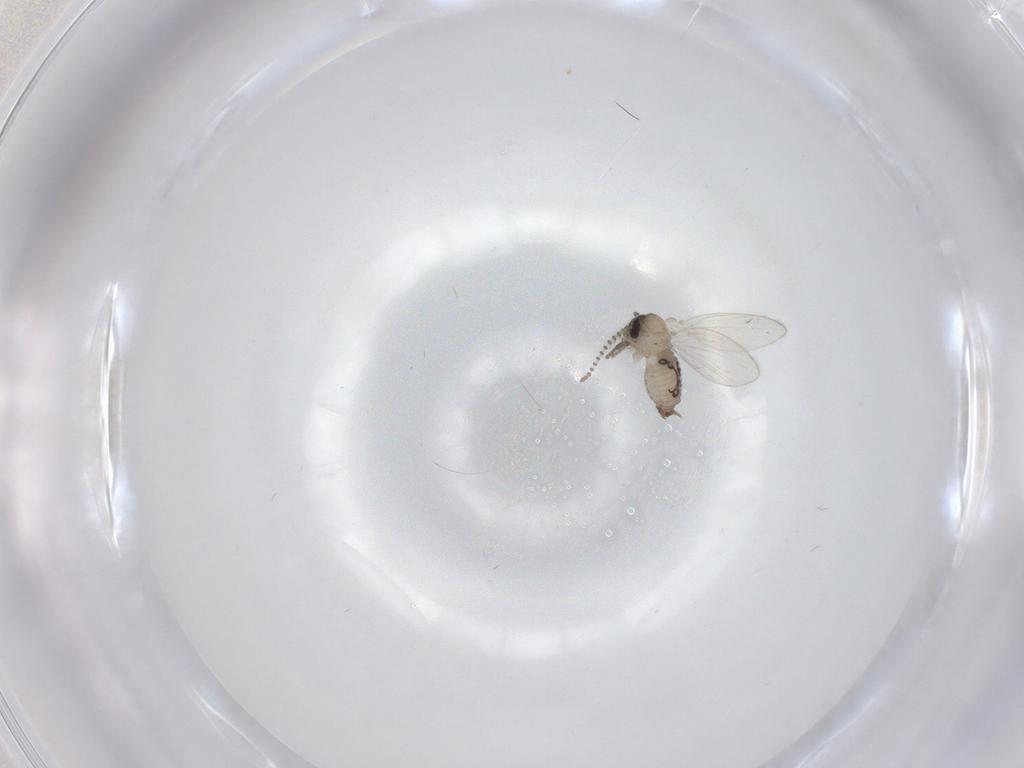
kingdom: Animalia
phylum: Arthropoda
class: Insecta
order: Diptera
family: Psychodidae
